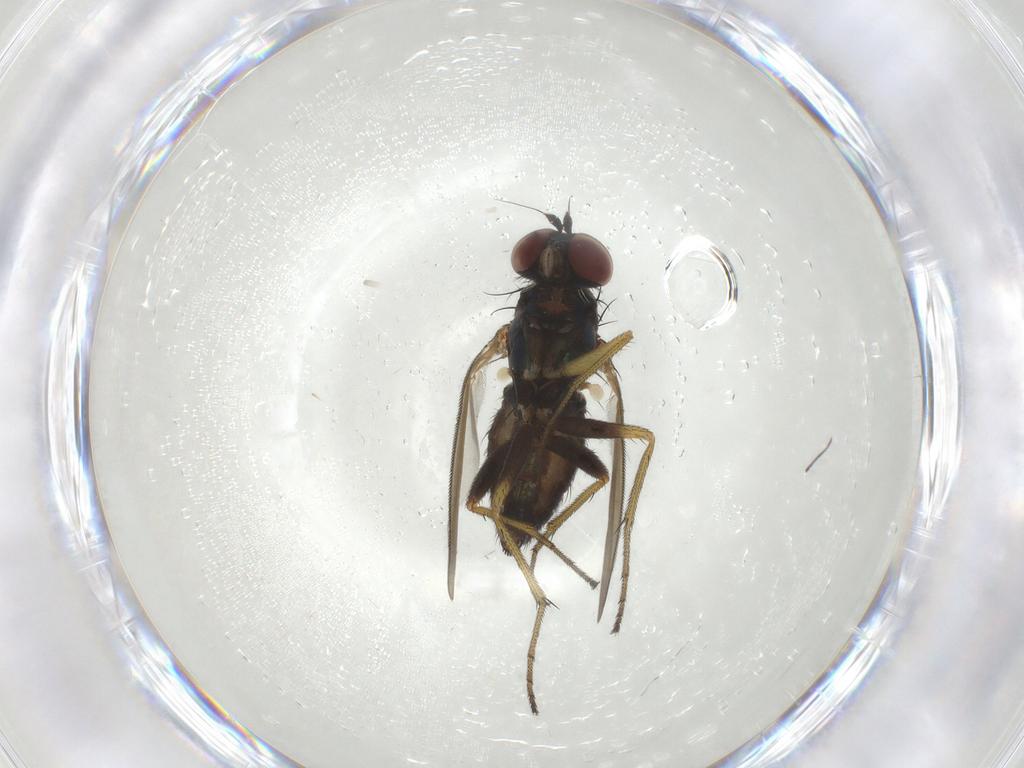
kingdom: Animalia
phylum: Arthropoda
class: Insecta
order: Diptera
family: Dolichopodidae
